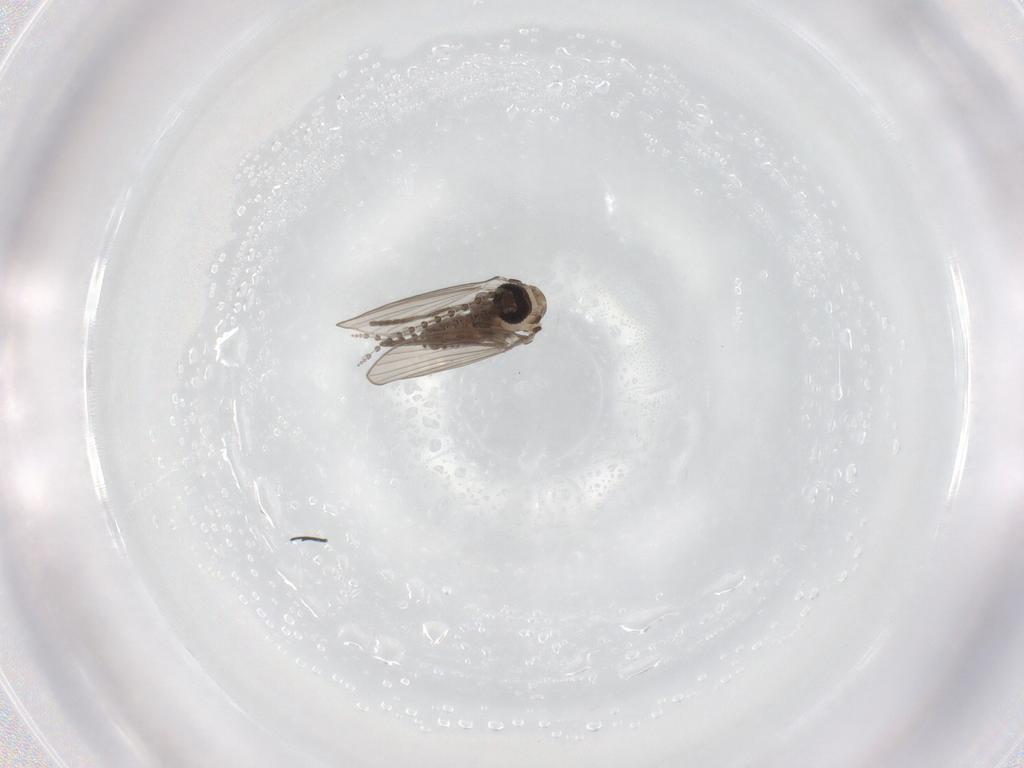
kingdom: Animalia
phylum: Arthropoda
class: Insecta
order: Diptera
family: Psychodidae
